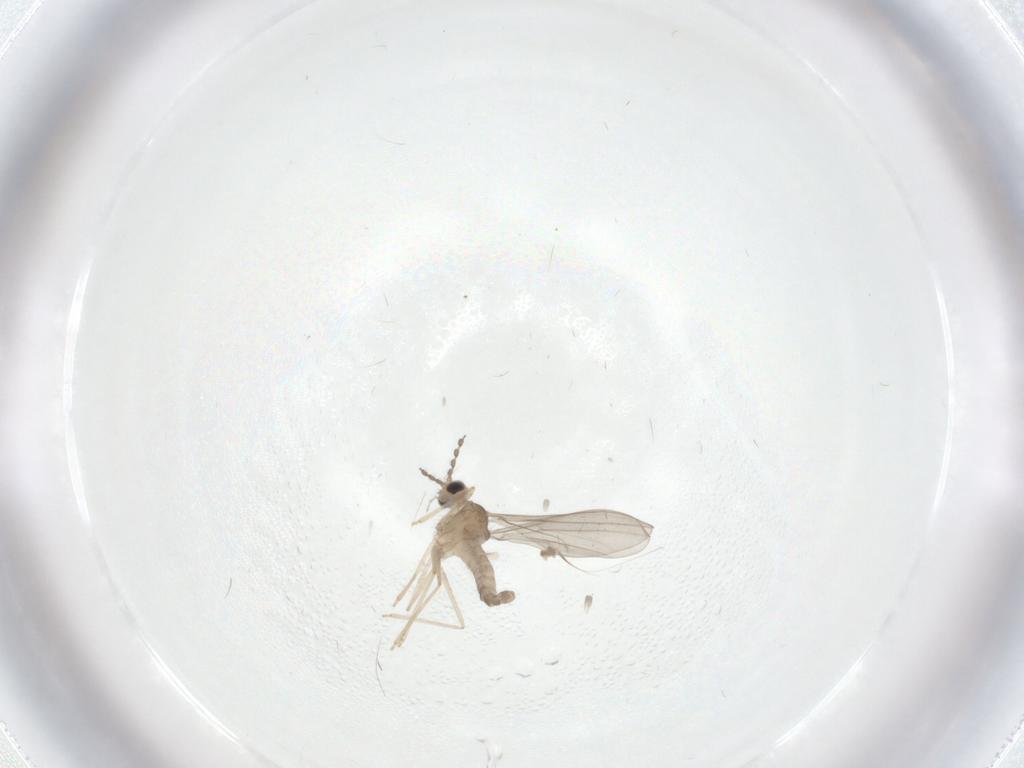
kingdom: Animalia
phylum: Arthropoda
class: Insecta
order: Diptera
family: Cecidomyiidae
